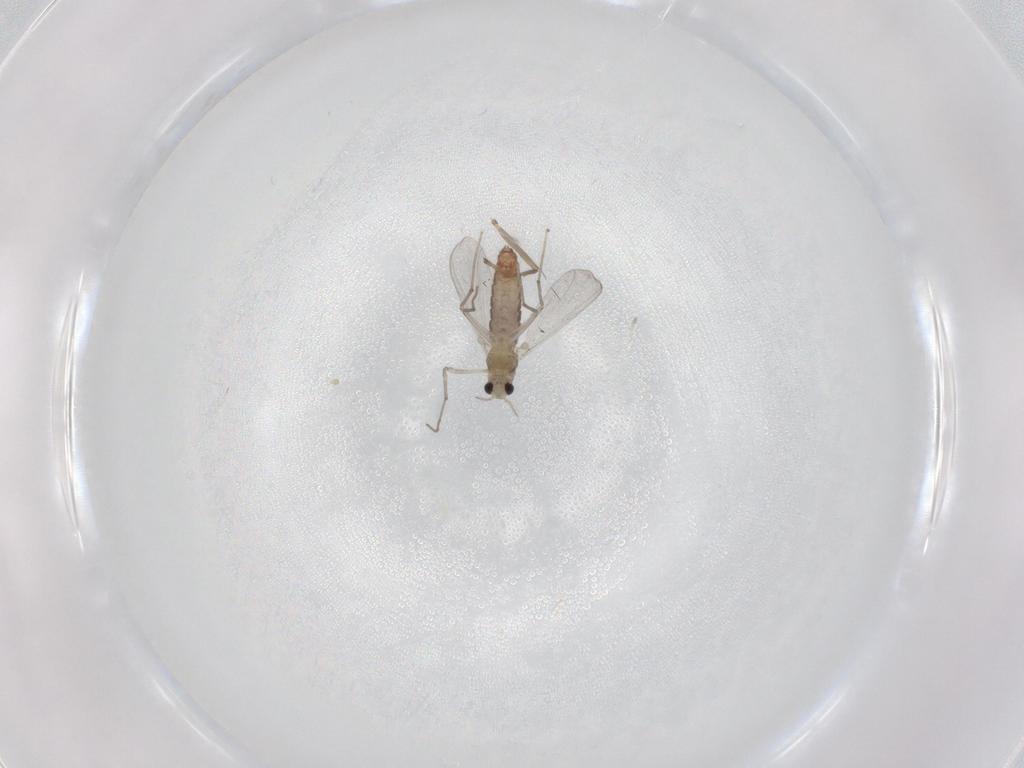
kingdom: Animalia
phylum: Arthropoda
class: Insecta
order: Diptera
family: Chironomidae
